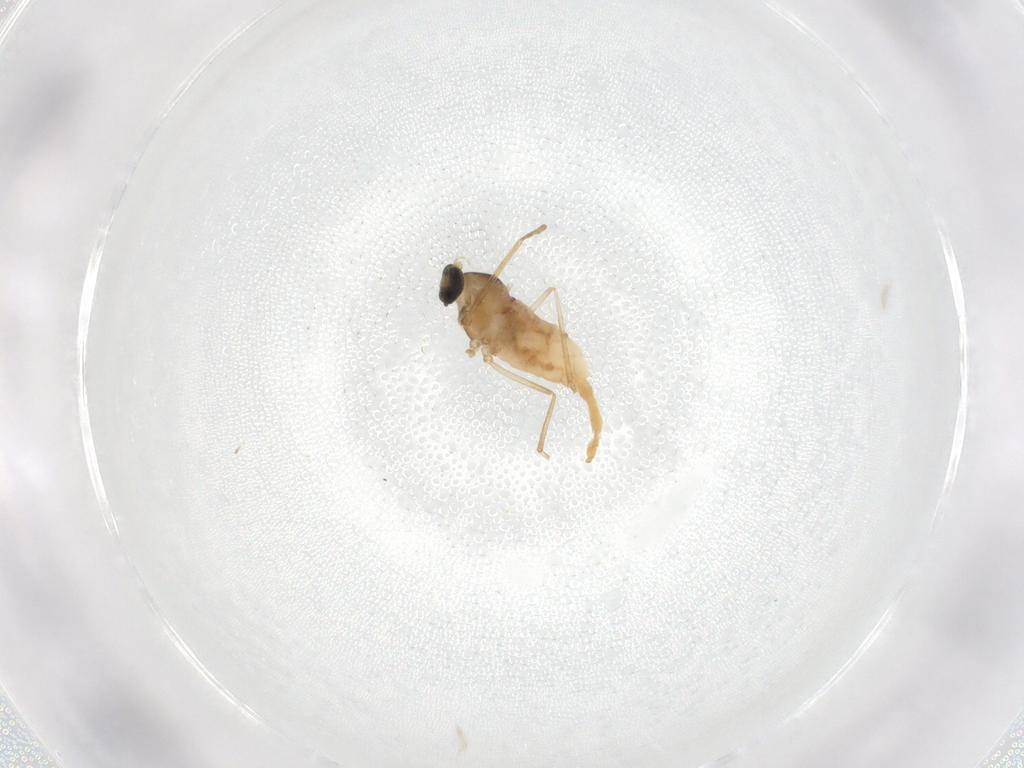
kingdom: Animalia
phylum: Arthropoda
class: Insecta
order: Diptera
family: Cecidomyiidae
